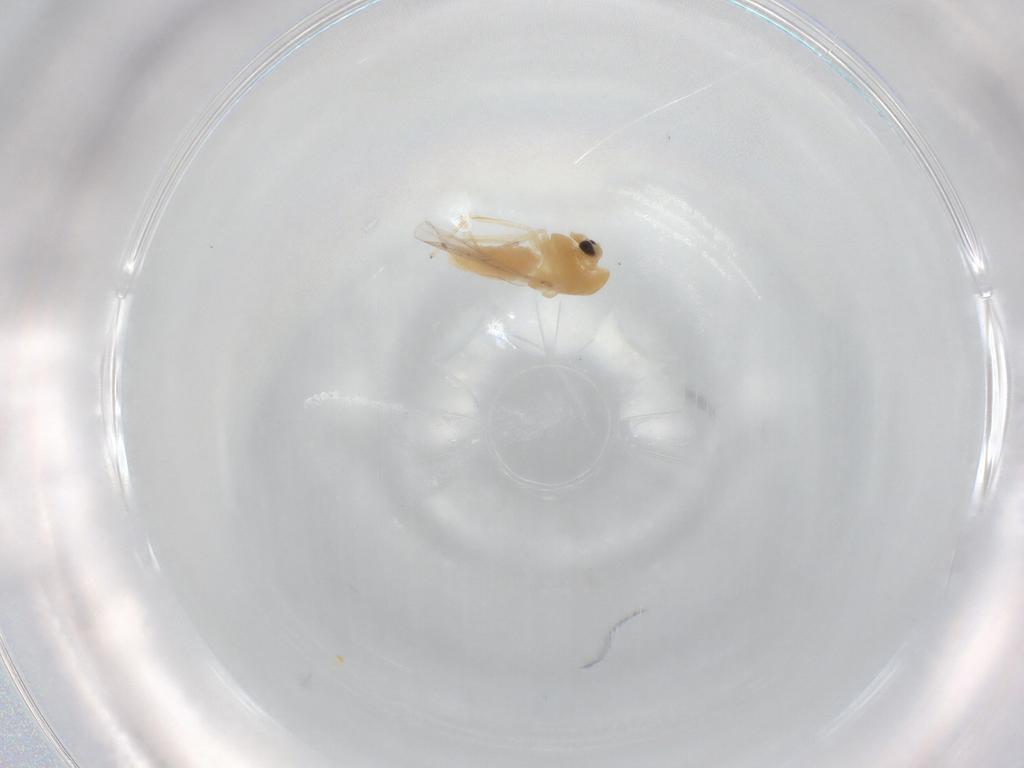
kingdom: Animalia
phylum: Arthropoda
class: Insecta
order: Diptera
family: Chironomidae
